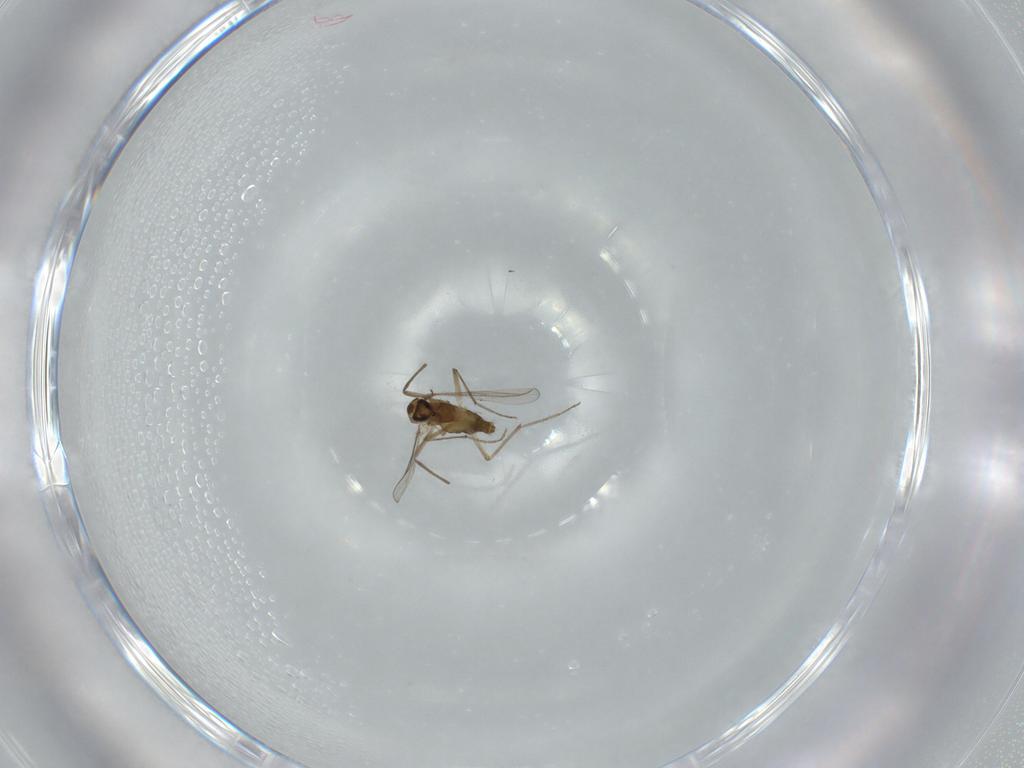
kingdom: Animalia
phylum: Arthropoda
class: Insecta
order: Diptera
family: Chironomidae
